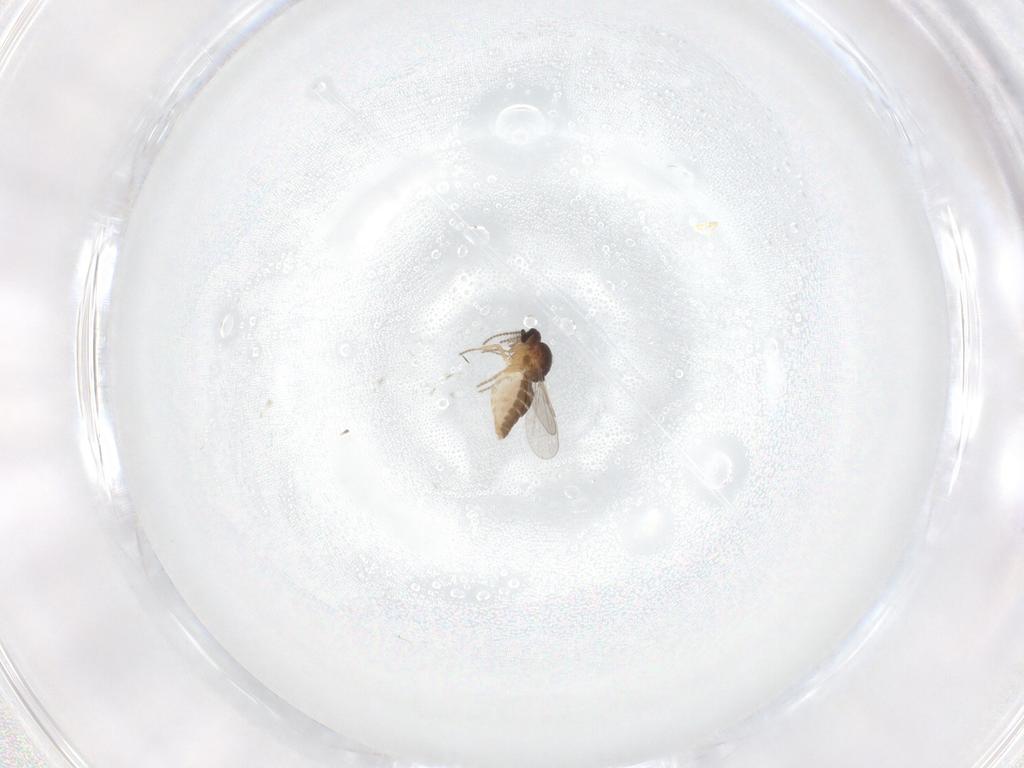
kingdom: Animalia
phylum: Arthropoda
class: Insecta
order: Diptera
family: Ceratopogonidae
